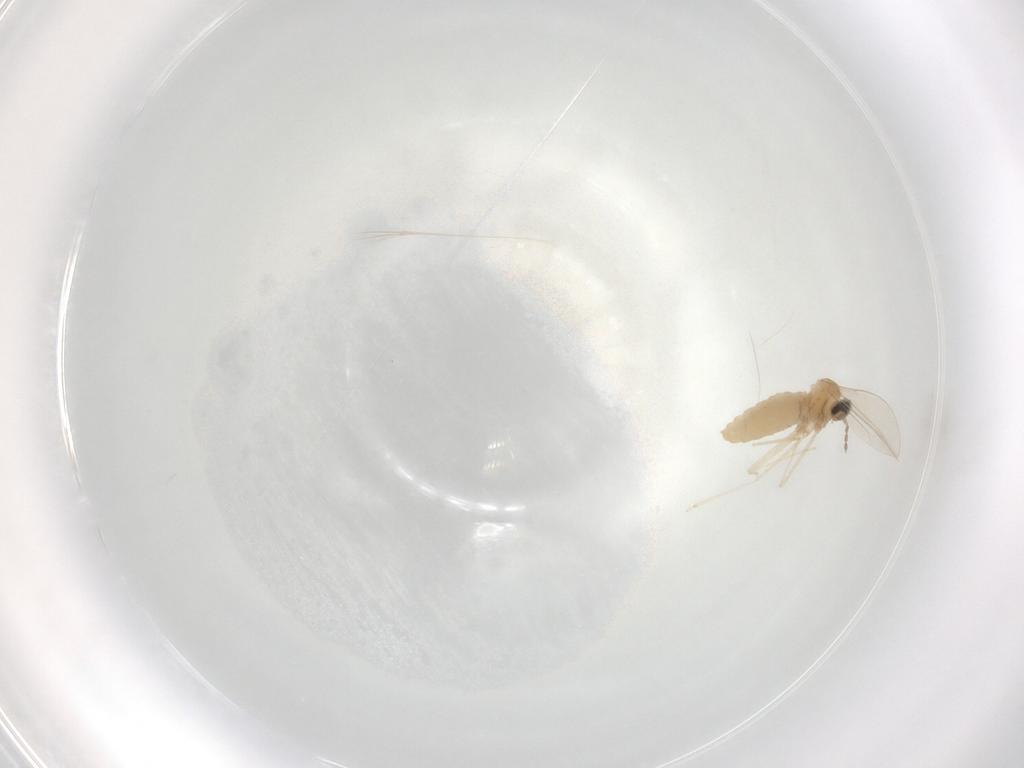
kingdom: Animalia
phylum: Arthropoda
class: Insecta
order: Diptera
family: Cecidomyiidae
